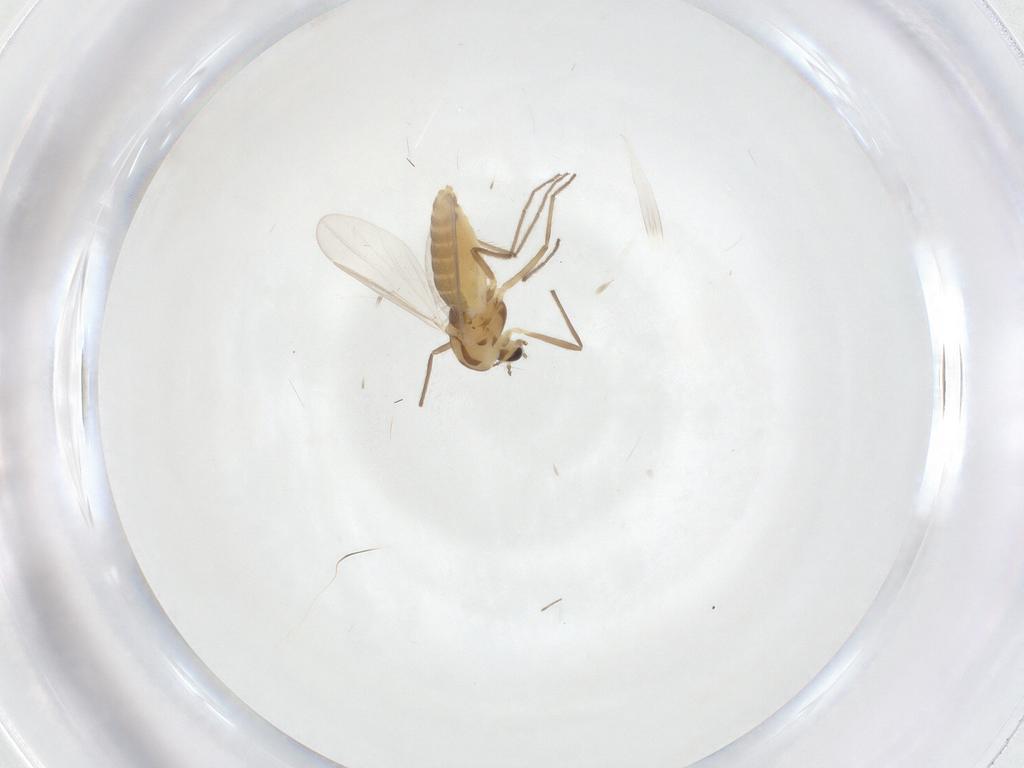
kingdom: Animalia
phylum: Arthropoda
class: Insecta
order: Diptera
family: Chironomidae
